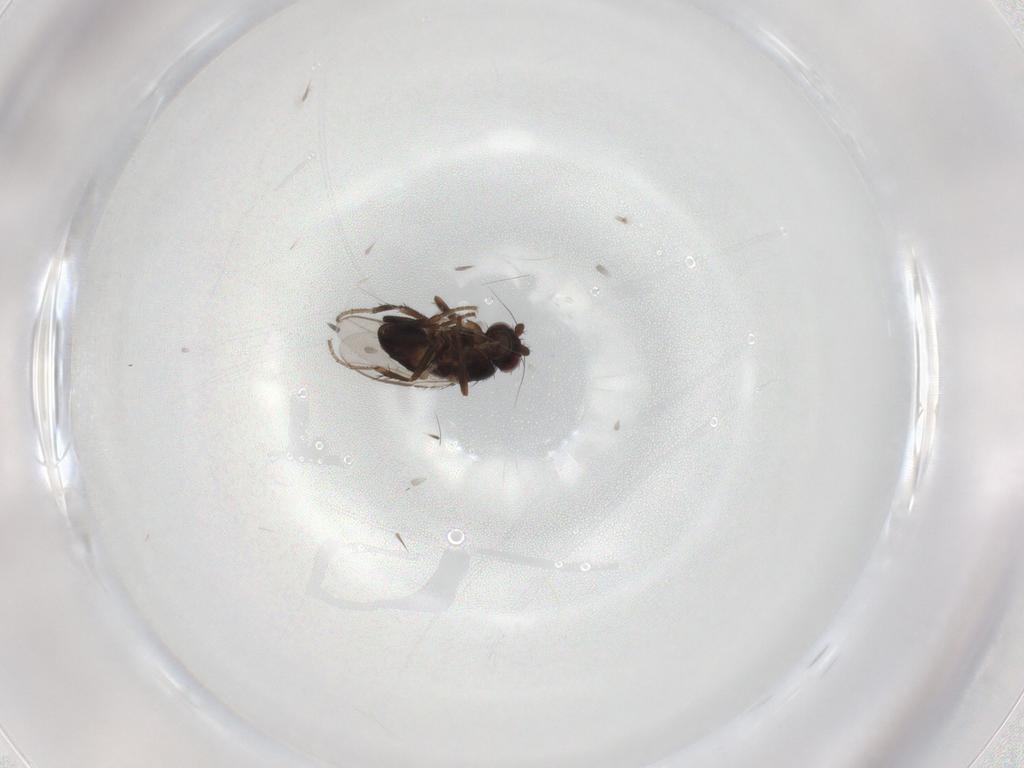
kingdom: Animalia
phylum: Arthropoda
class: Insecta
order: Diptera
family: Sphaeroceridae
